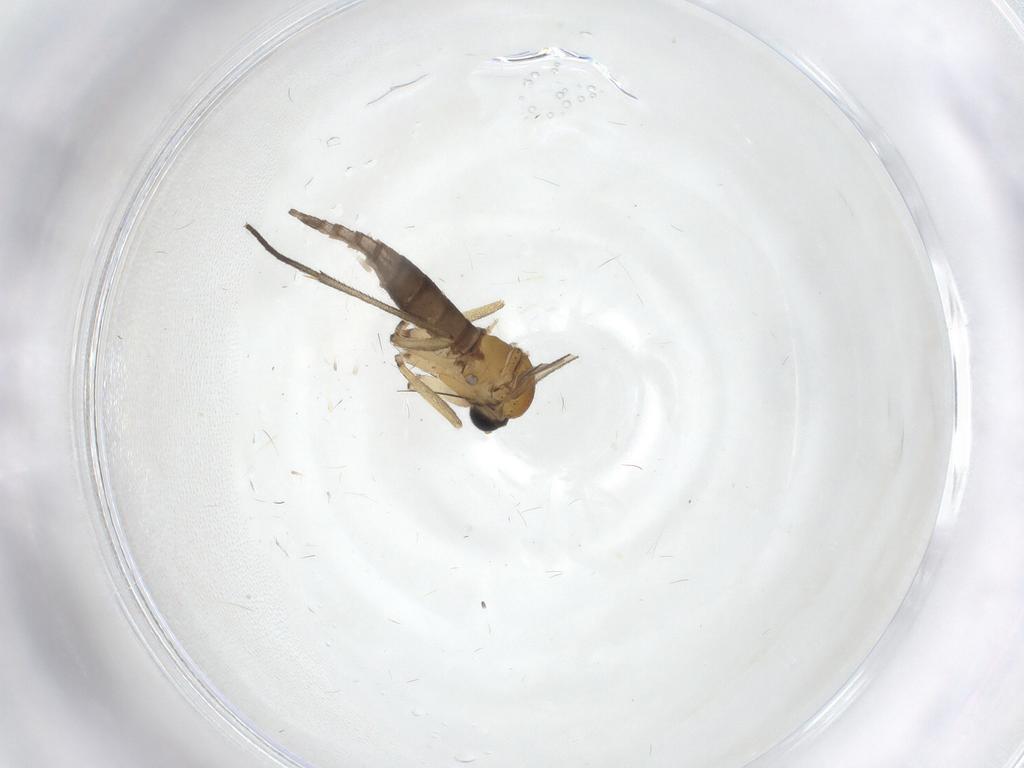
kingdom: Animalia
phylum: Arthropoda
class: Insecta
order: Diptera
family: Sciaridae
